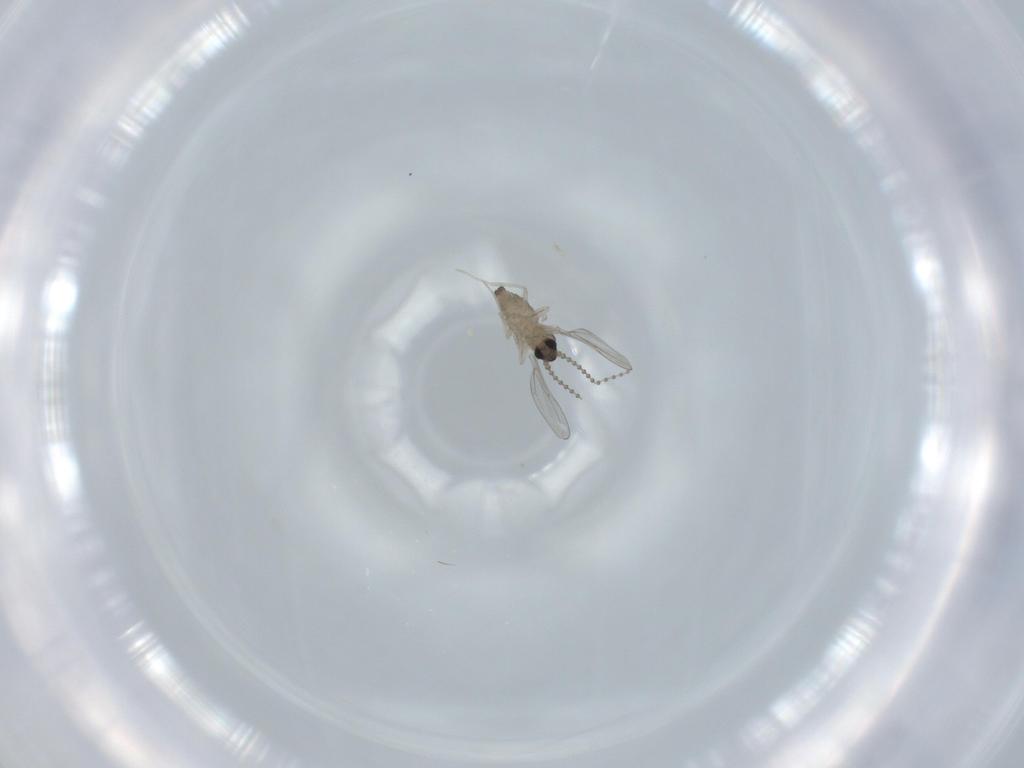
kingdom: Animalia
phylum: Arthropoda
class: Insecta
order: Diptera
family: Cecidomyiidae
